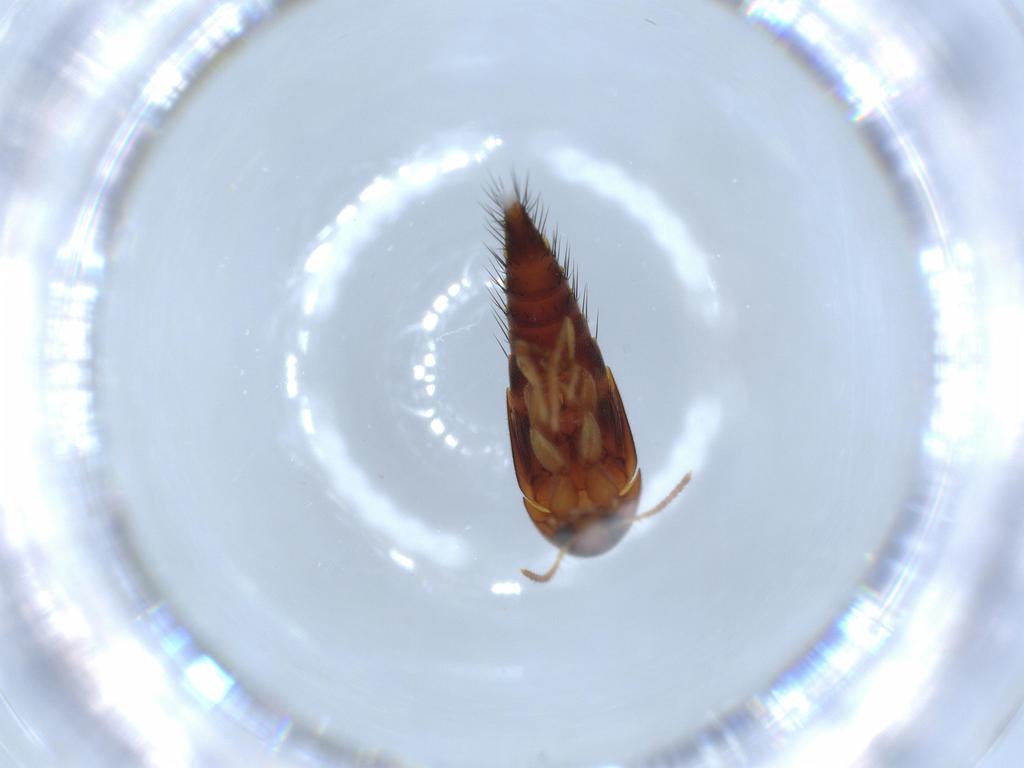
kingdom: Animalia
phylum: Arthropoda
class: Insecta
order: Coleoptera
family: Staphylinidae
